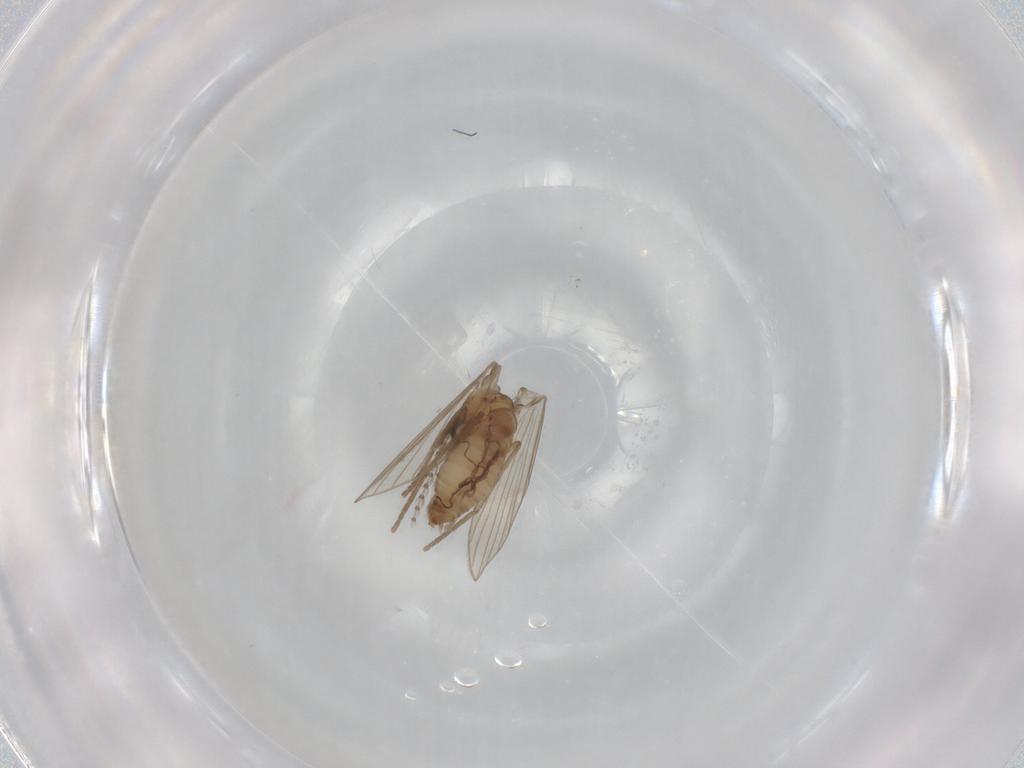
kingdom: Animalia
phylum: Arthropoda
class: Insecta
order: Diptera
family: Psychodidae
